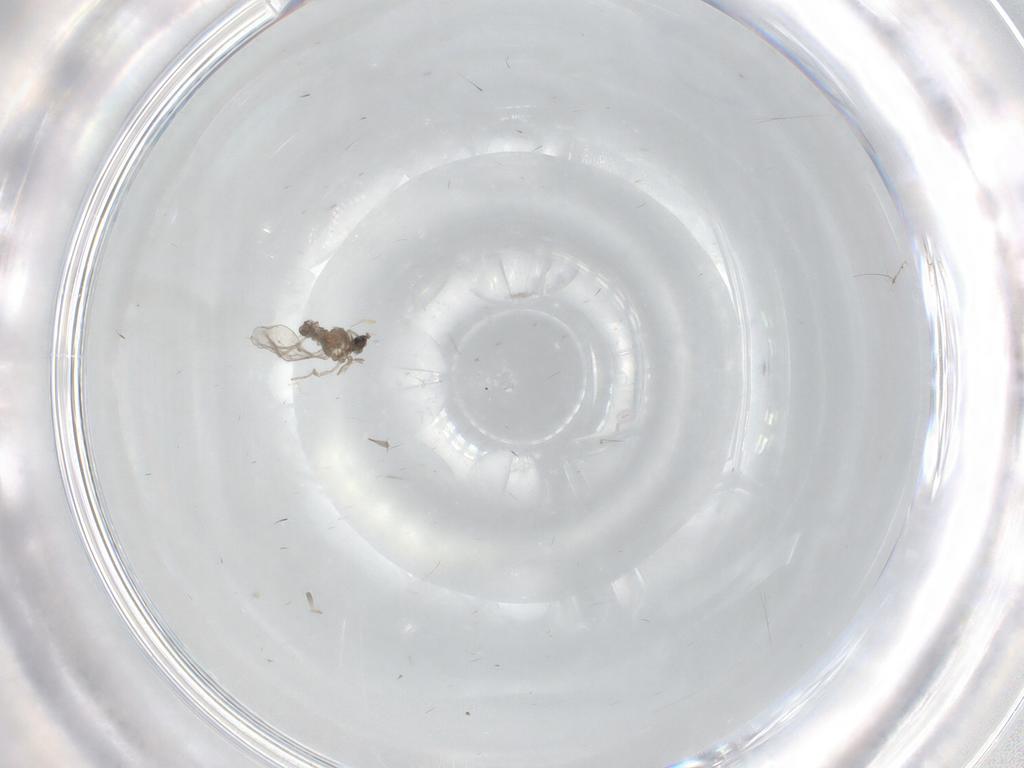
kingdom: Animalia
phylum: Arthropoda
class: Insecta
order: Diptera
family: Cecidomyiidae
